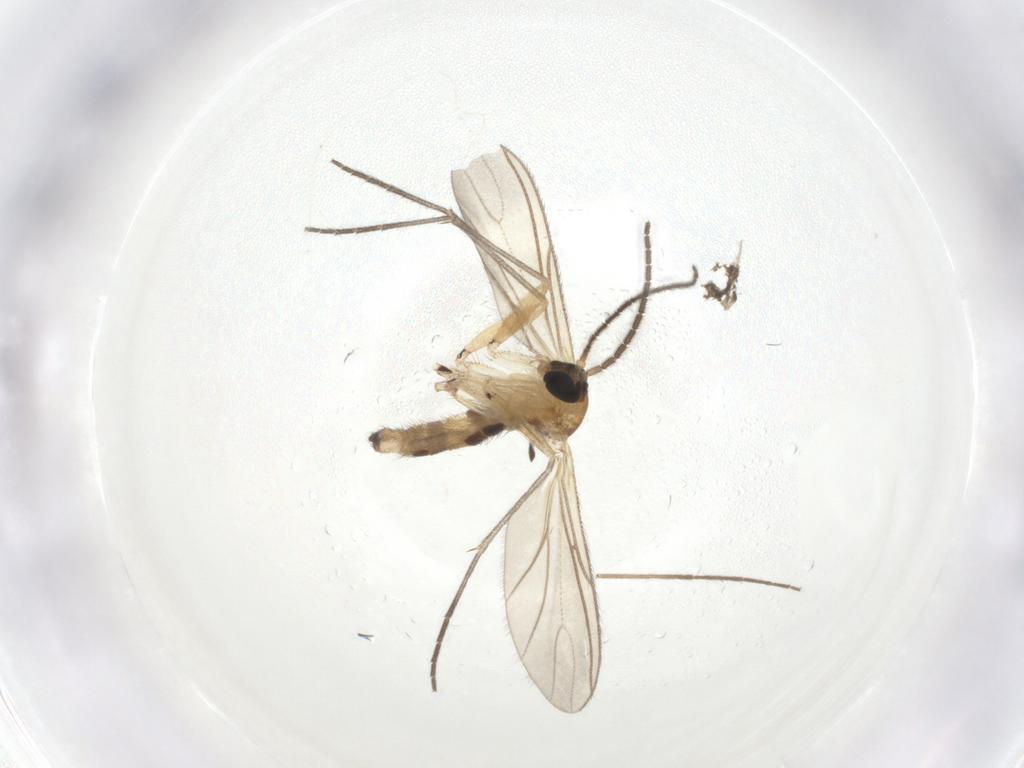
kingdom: Animalia
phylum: Arthropoda
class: Insecta
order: Diptera
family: Sciaridae
